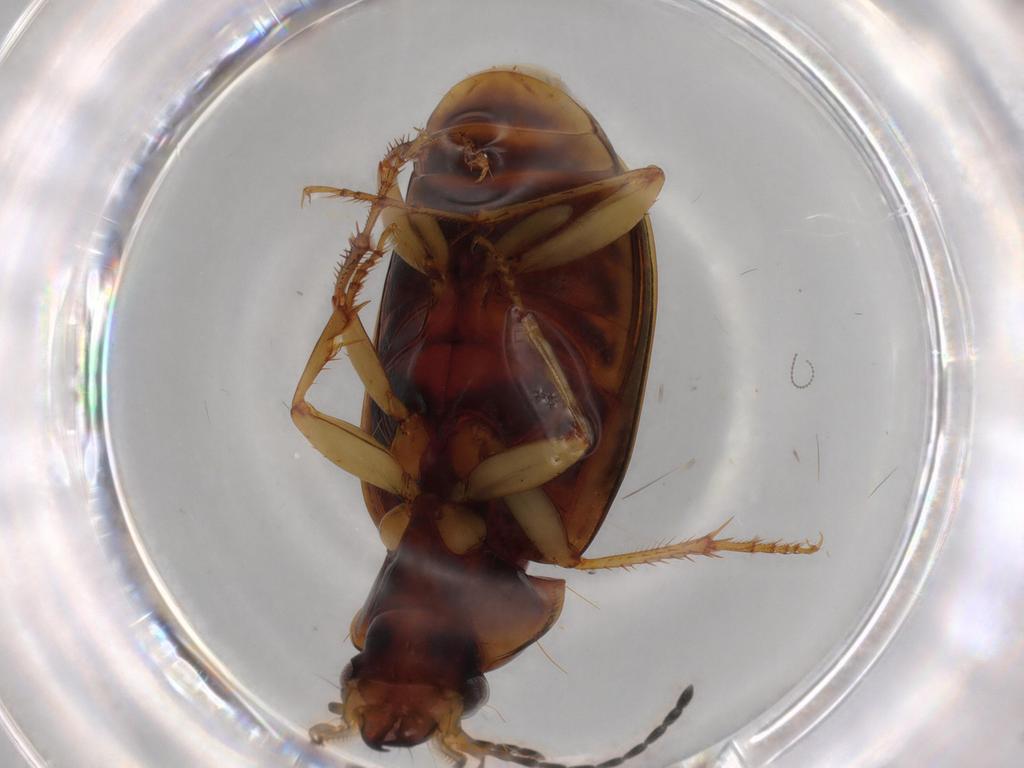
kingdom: Animalia
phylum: Arthropoda
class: Insecta
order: Coleoptera
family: Carabidae
